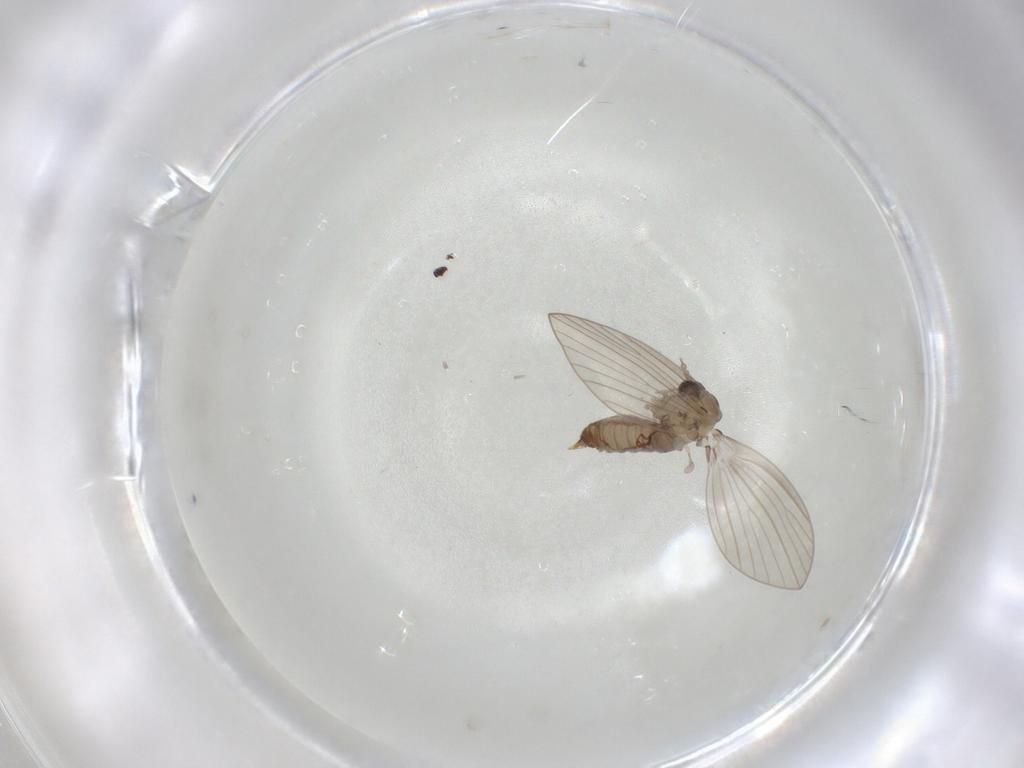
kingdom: Animalia
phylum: Arthropoda
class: Insecta
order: Diptera
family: Psychodidae
